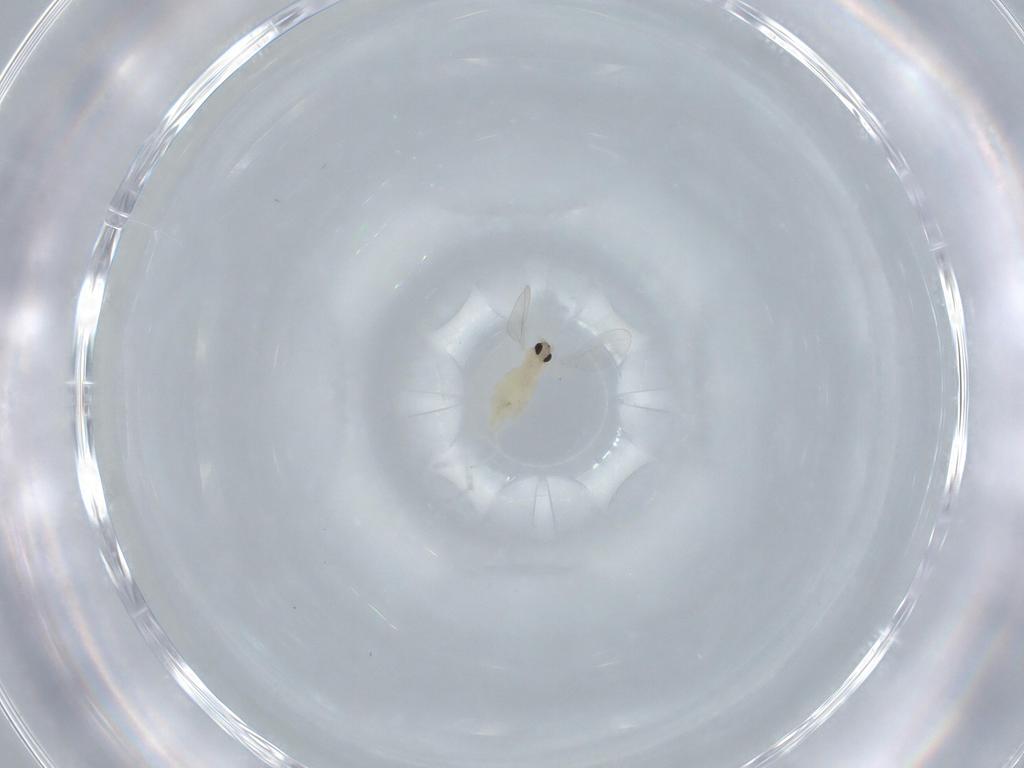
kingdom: Animalia
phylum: Arthropoda
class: Insecta
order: Diptera
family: Cecidomyiidae
